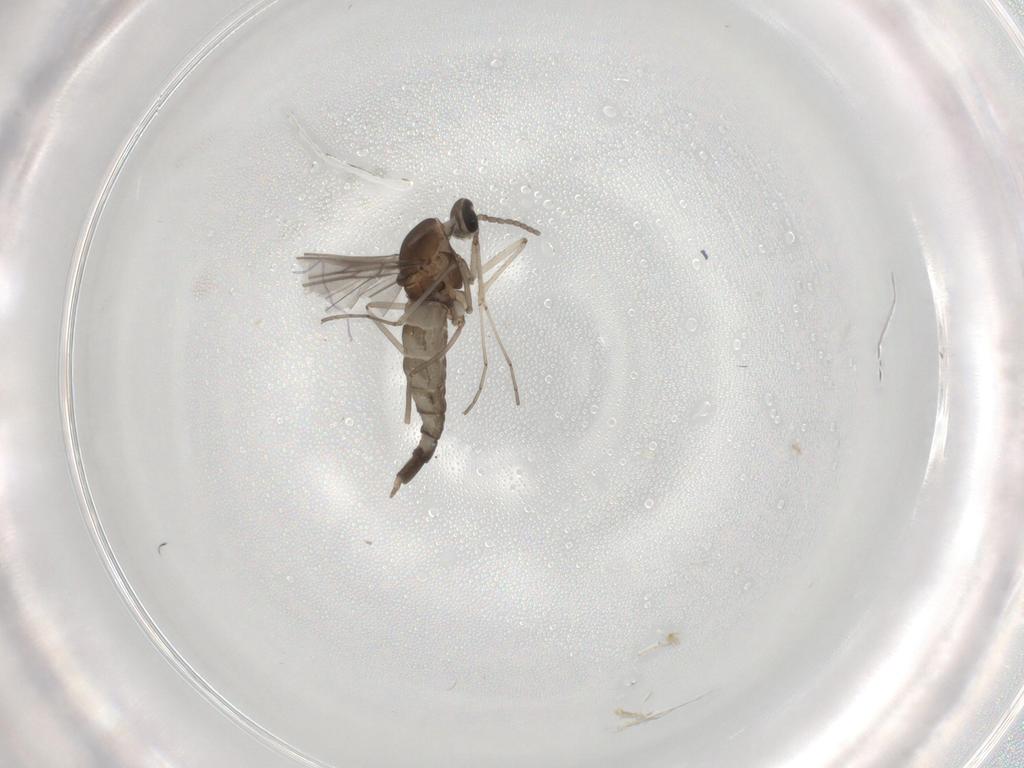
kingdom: Animalia
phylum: Arthropoda
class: Insecta
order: Diptera
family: Cecidomyiidae
